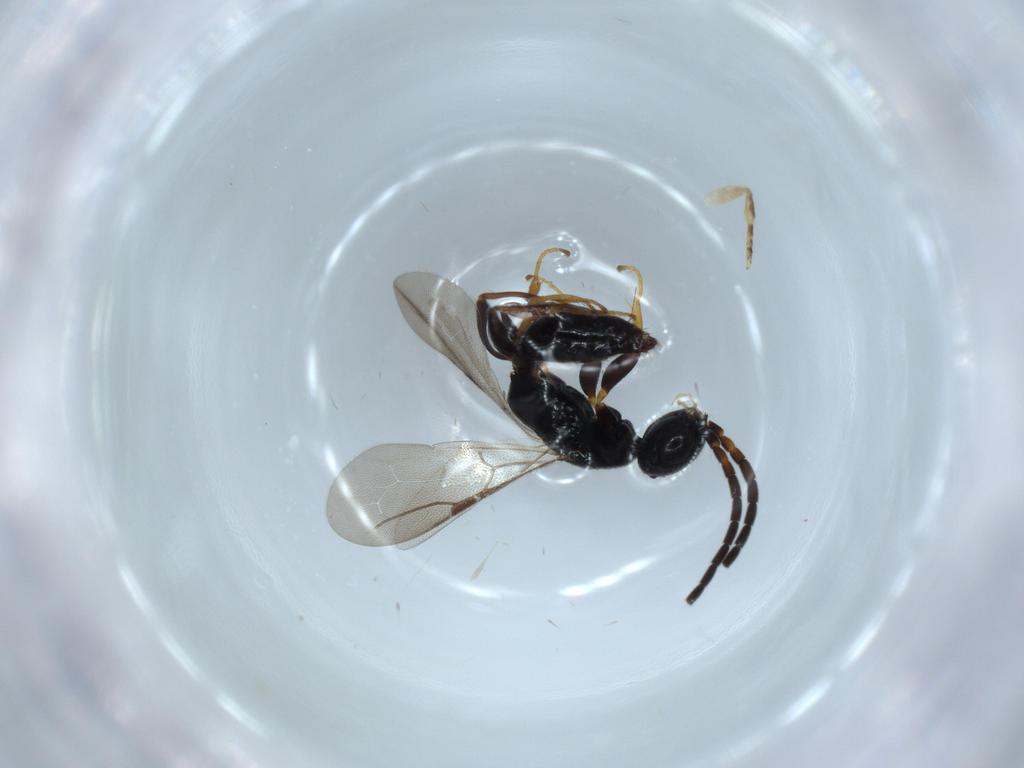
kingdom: Animalia
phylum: Arthropoda
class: Insecta
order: Hymenoptera
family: Bethylidae
